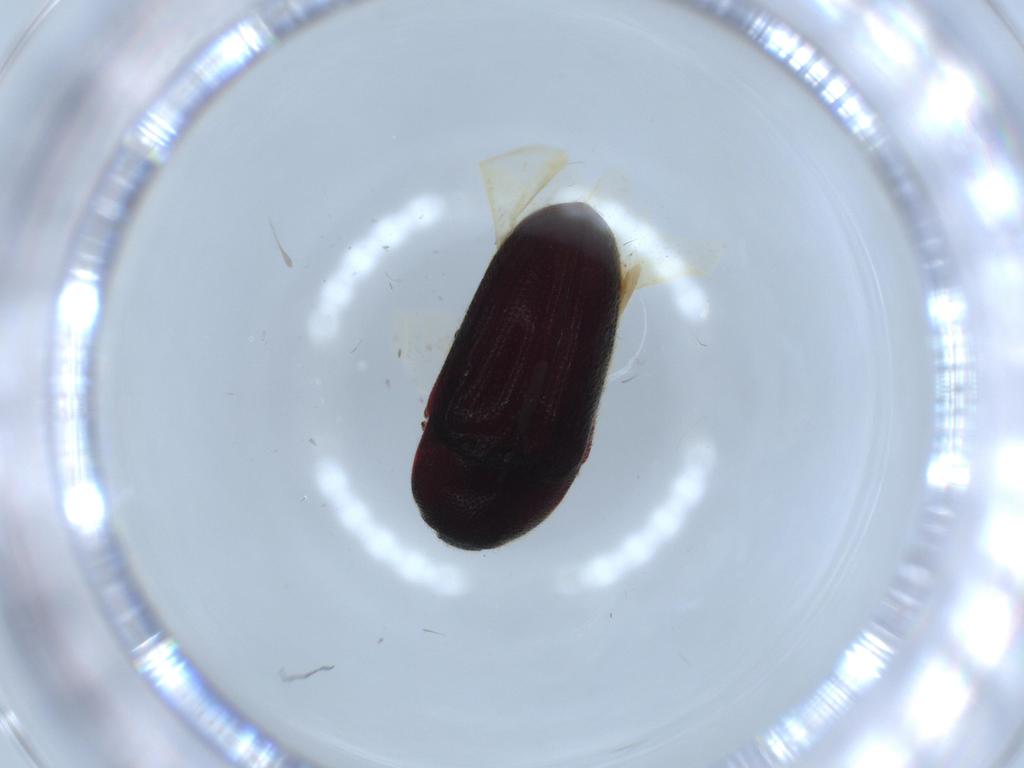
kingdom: Animalia
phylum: Arthropoda
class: Insecta
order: Coleoptera
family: Throscidae
